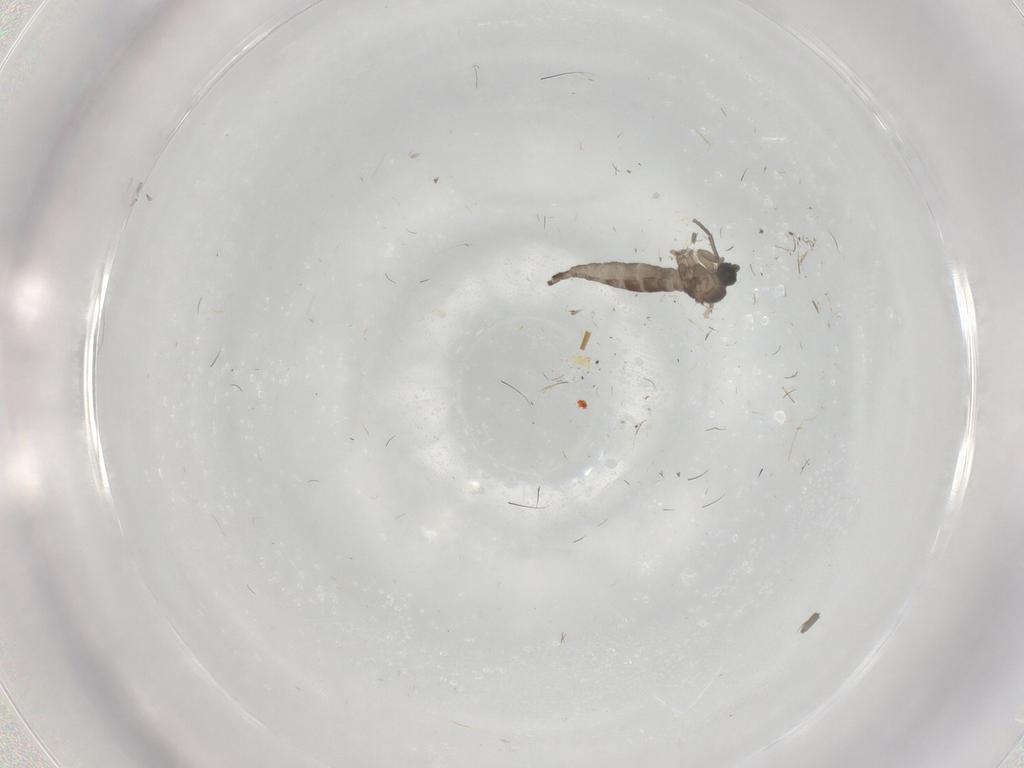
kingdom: Animalia
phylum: Arthropoda
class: Insecta
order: Diptera
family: Sciaridae
